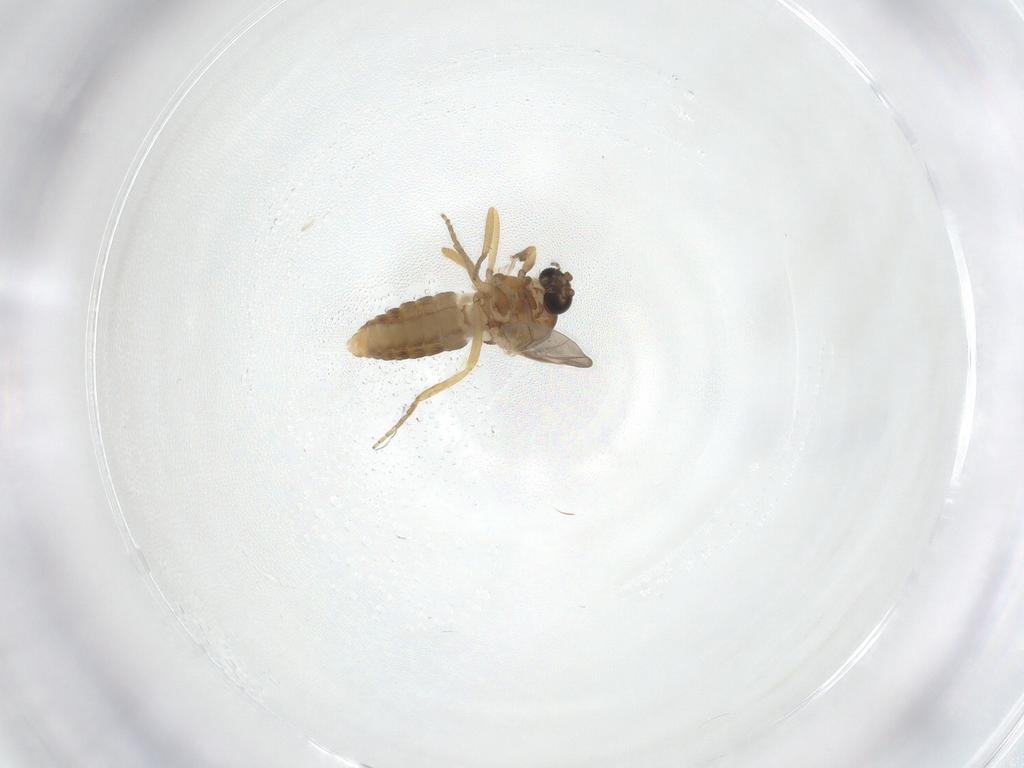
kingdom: Animalia
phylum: Arthropoda
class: Insecta
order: Diptera
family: Ceratopogonidae
